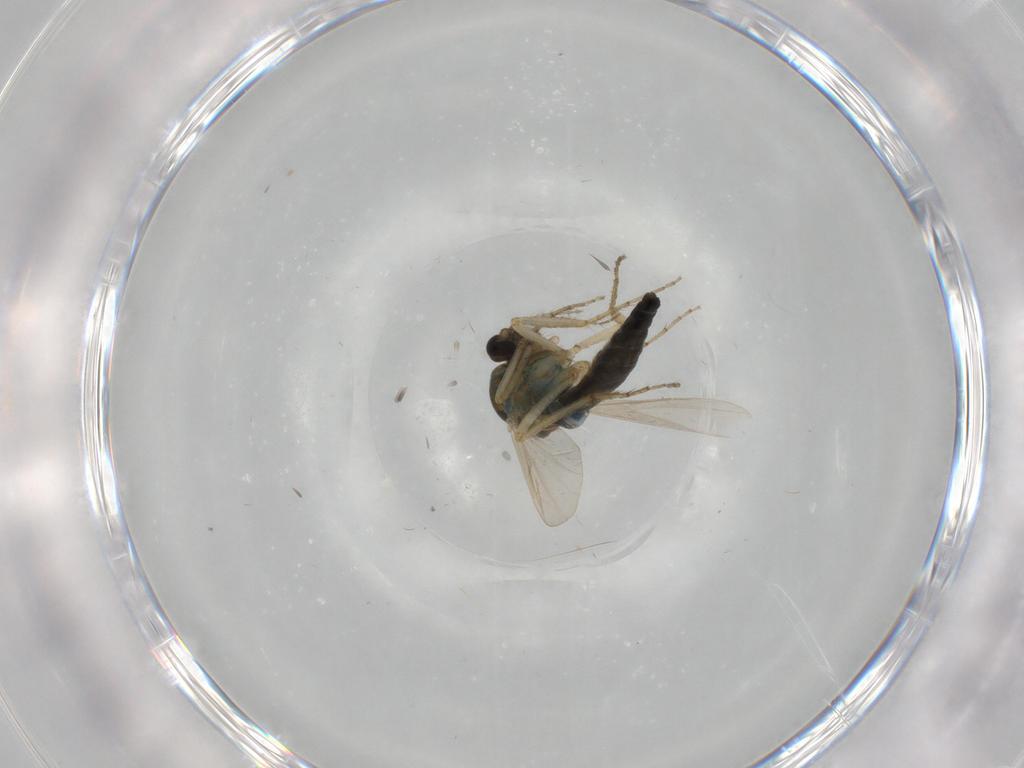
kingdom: Animalia
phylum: Arthropoda
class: Insecta
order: Diptera
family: Ceratopogonidae
